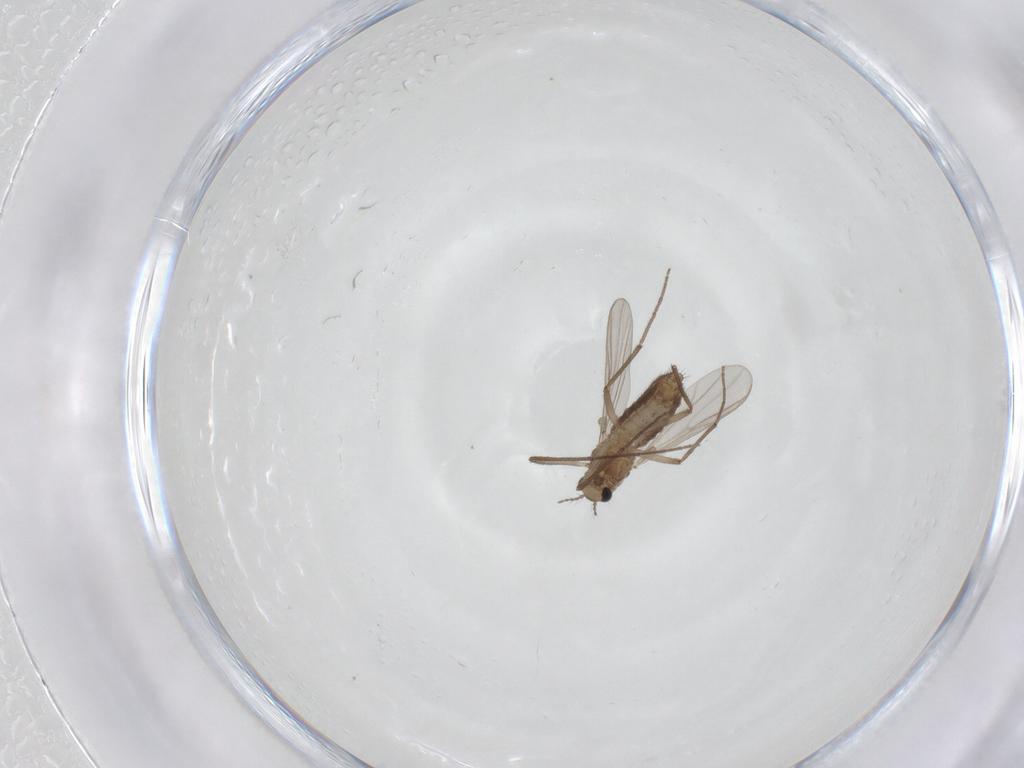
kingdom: Animalia
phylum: Arthropoda
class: Insecta
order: Diptera
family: Chironomidae
